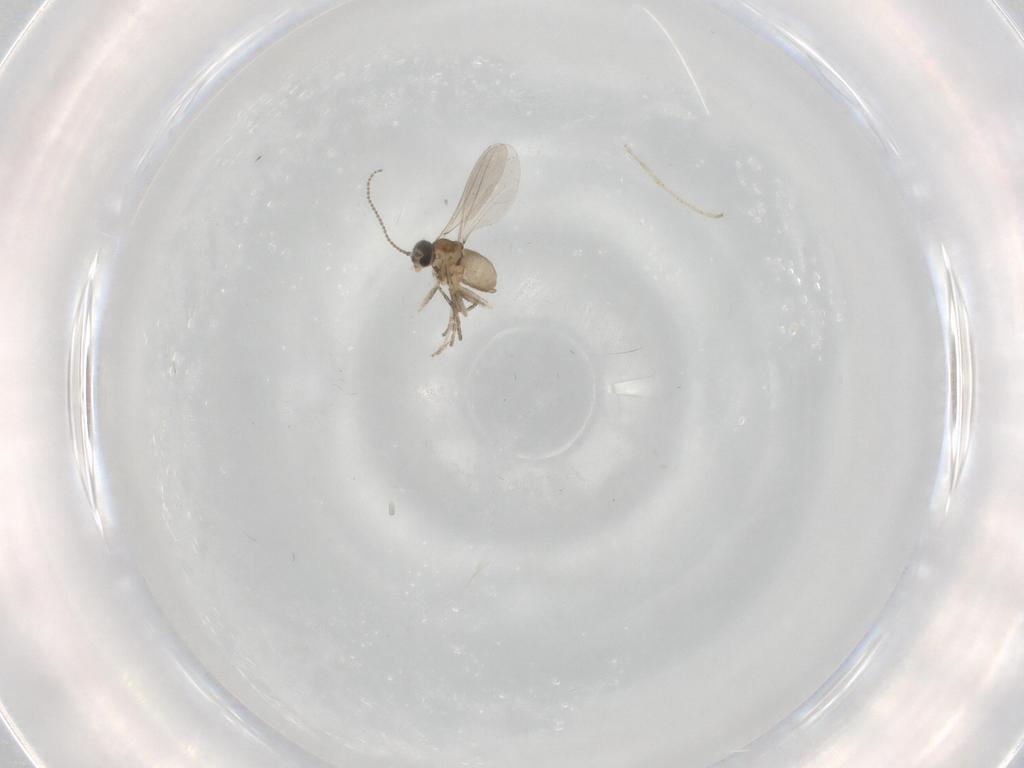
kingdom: Animalia
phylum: Arthropoda
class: Insecta
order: Diptera
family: Cecidomyiidae
